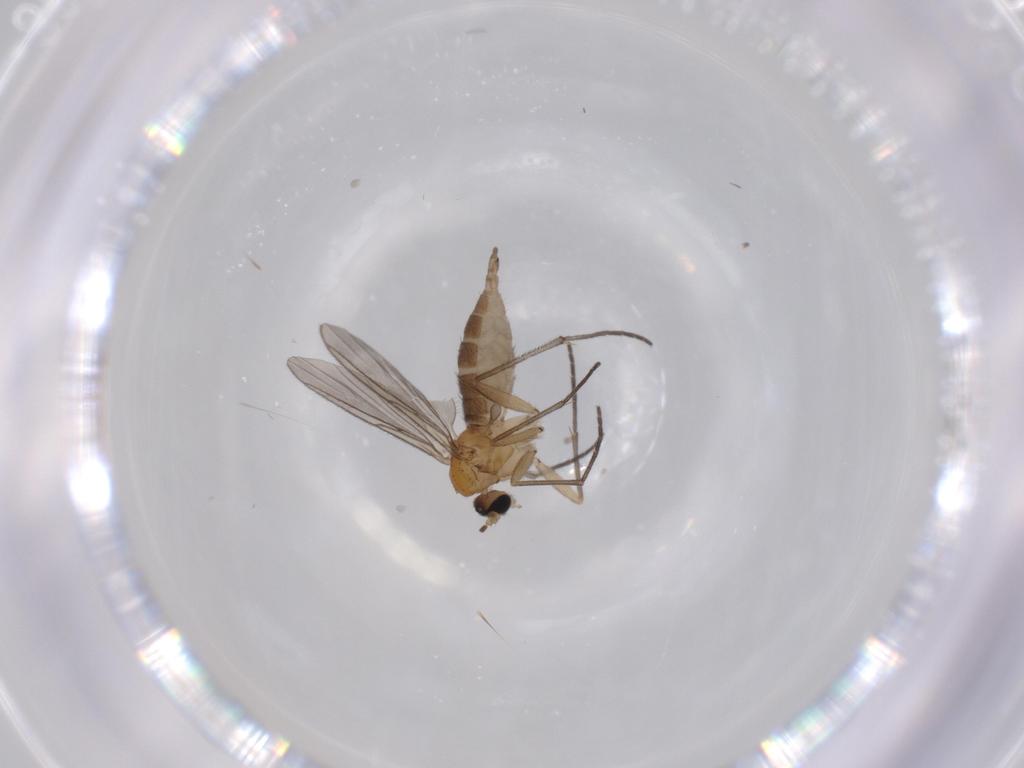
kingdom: Animalia
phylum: Arthropoda
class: Insecta
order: Diptera
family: Sciaridae
